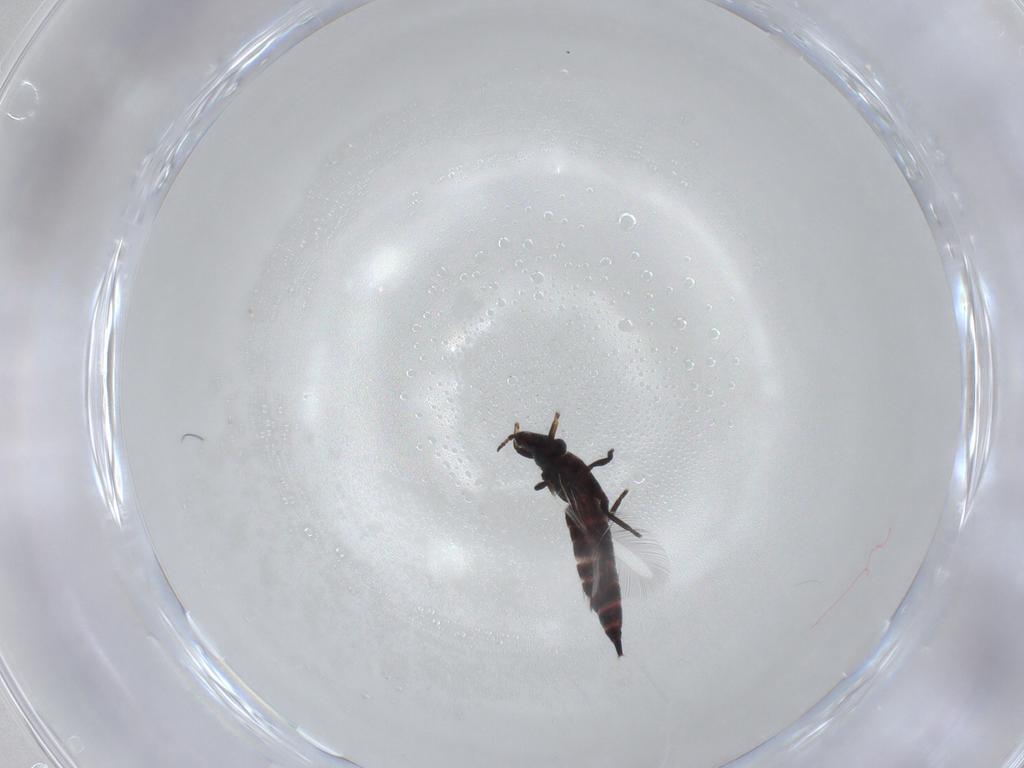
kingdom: Animalia
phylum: Arthropoda
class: Insecta
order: Thysanoptera
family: Phlaeothripidae
